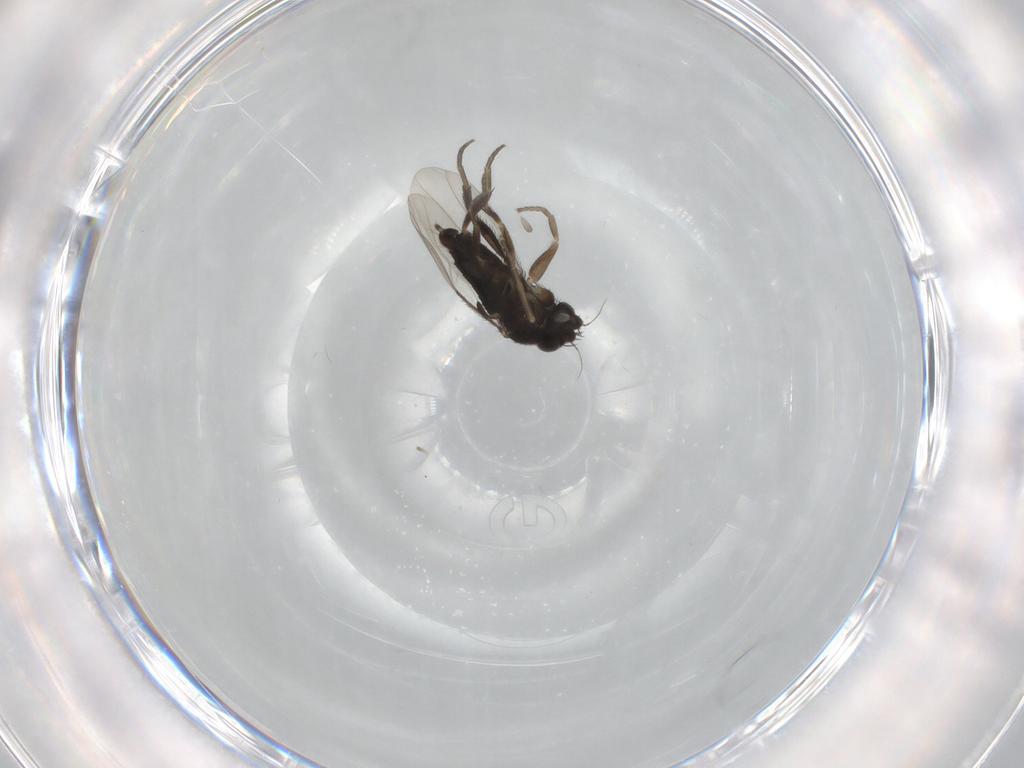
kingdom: Animalia
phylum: Arthropoda
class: Insecta
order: Diptera
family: Phoridae
